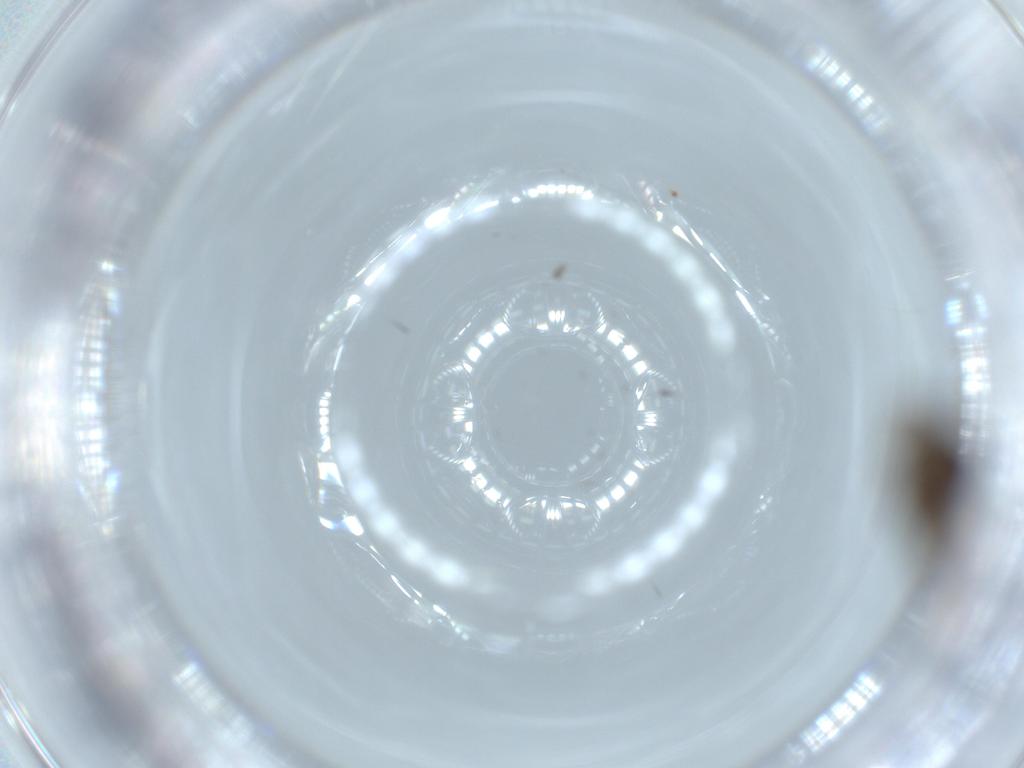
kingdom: Animalia
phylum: Arthropoda
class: Insecta
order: Diptera
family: Psychodidae
